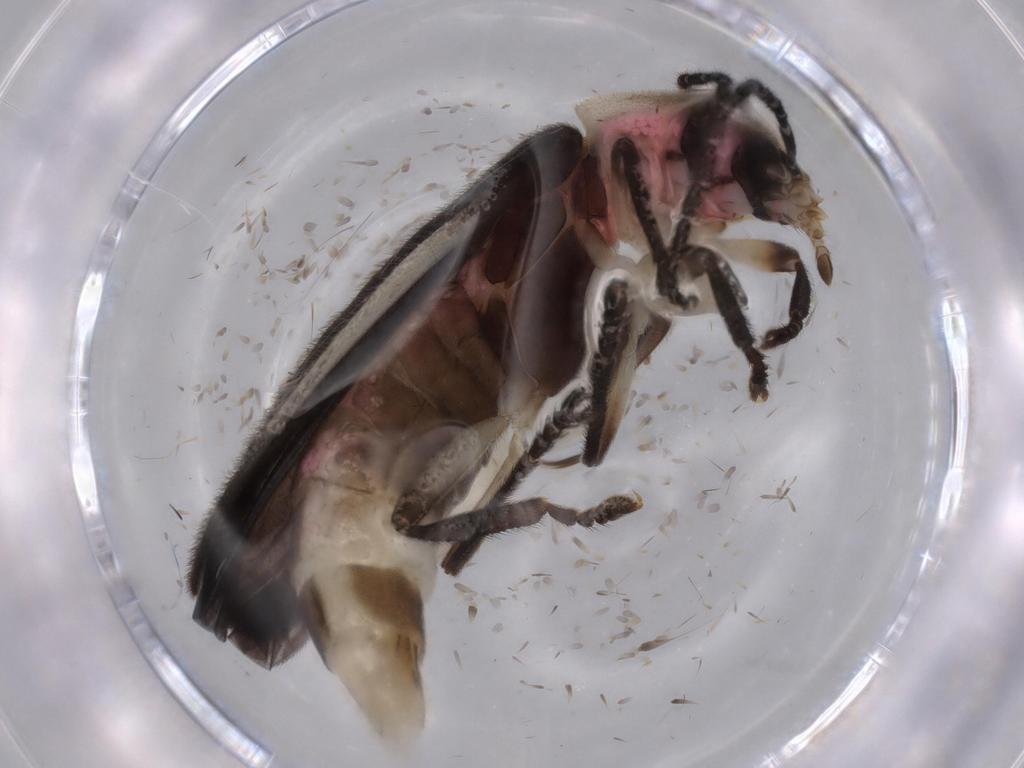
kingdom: Animalia
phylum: Arthropoda
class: Insecta
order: Coleoptera
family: Lampyridae
